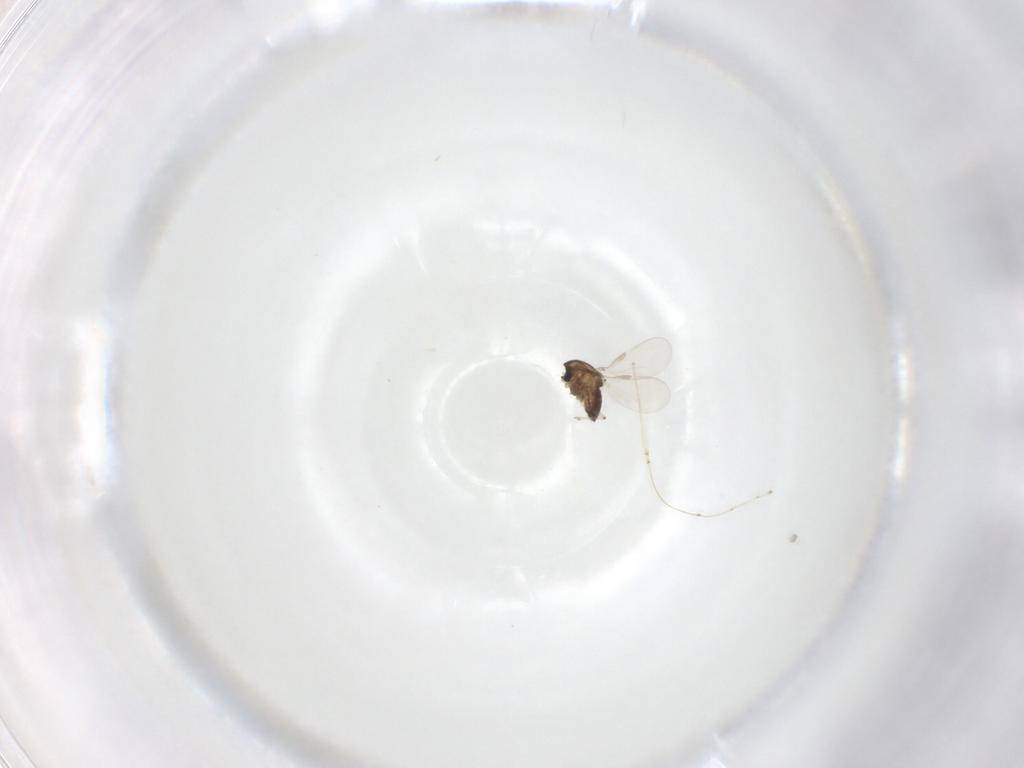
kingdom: Animalia
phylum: Arthropoda
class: Insecta
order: Diptera
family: Chironomidae
